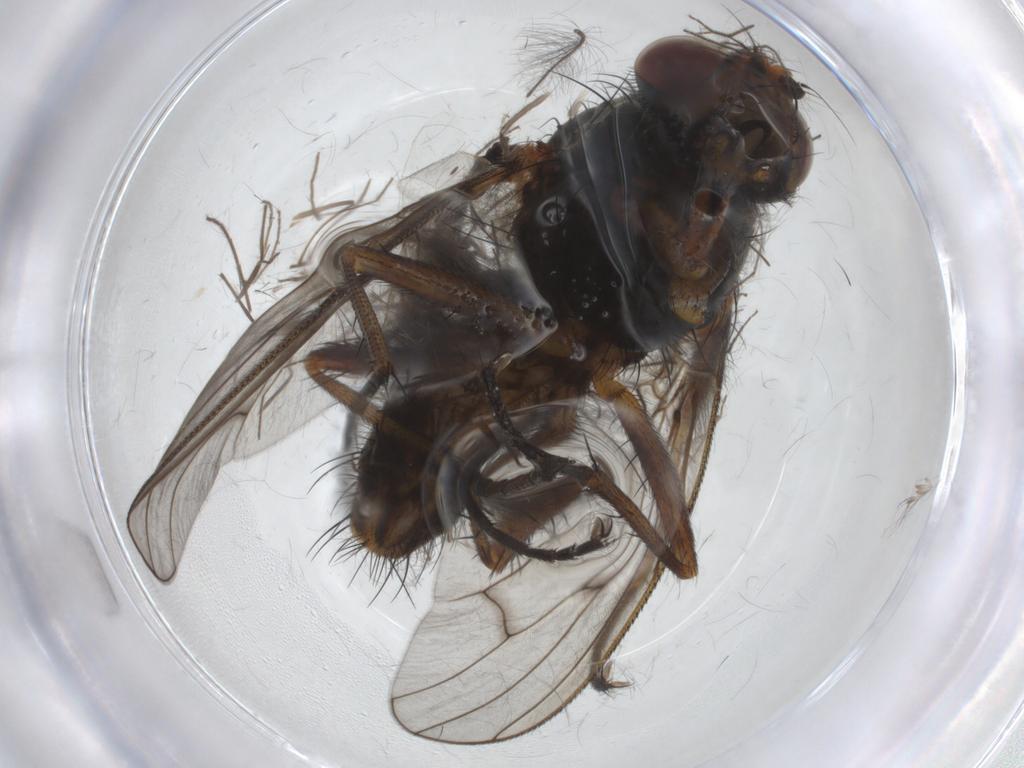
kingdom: Animalia
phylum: Arthropoda
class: Insecta
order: Diptera
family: Anthomyiidae
